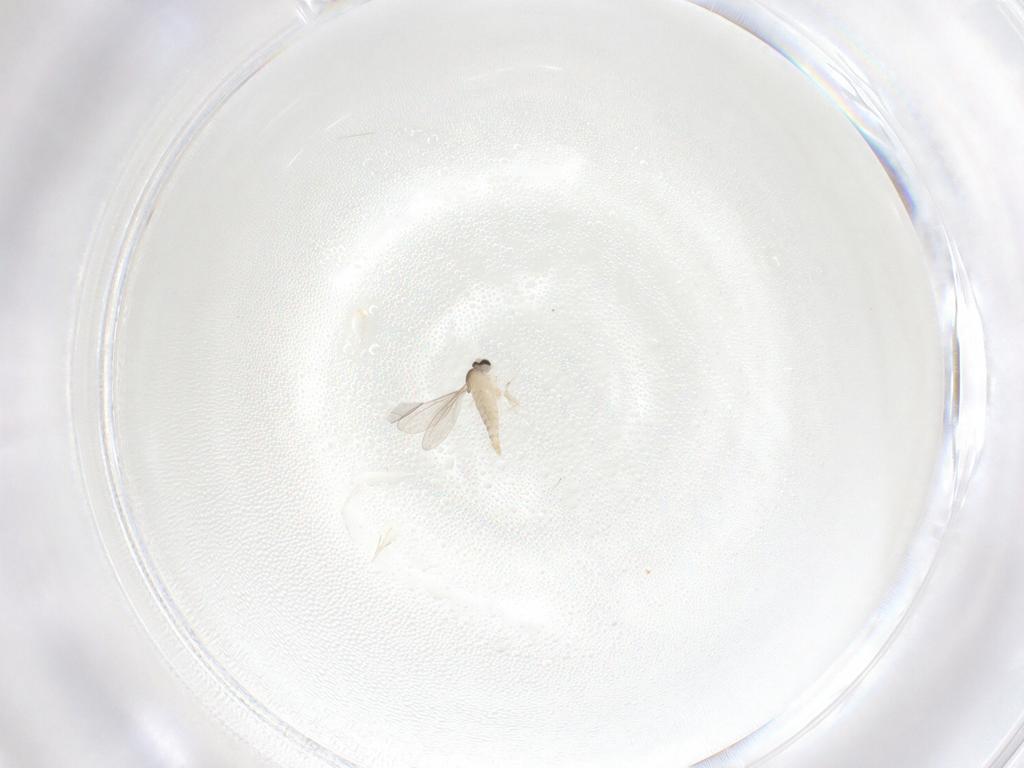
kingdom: Animalia
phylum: Arthropoda
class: Insecta
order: Diptera
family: Cecidomyiidae
